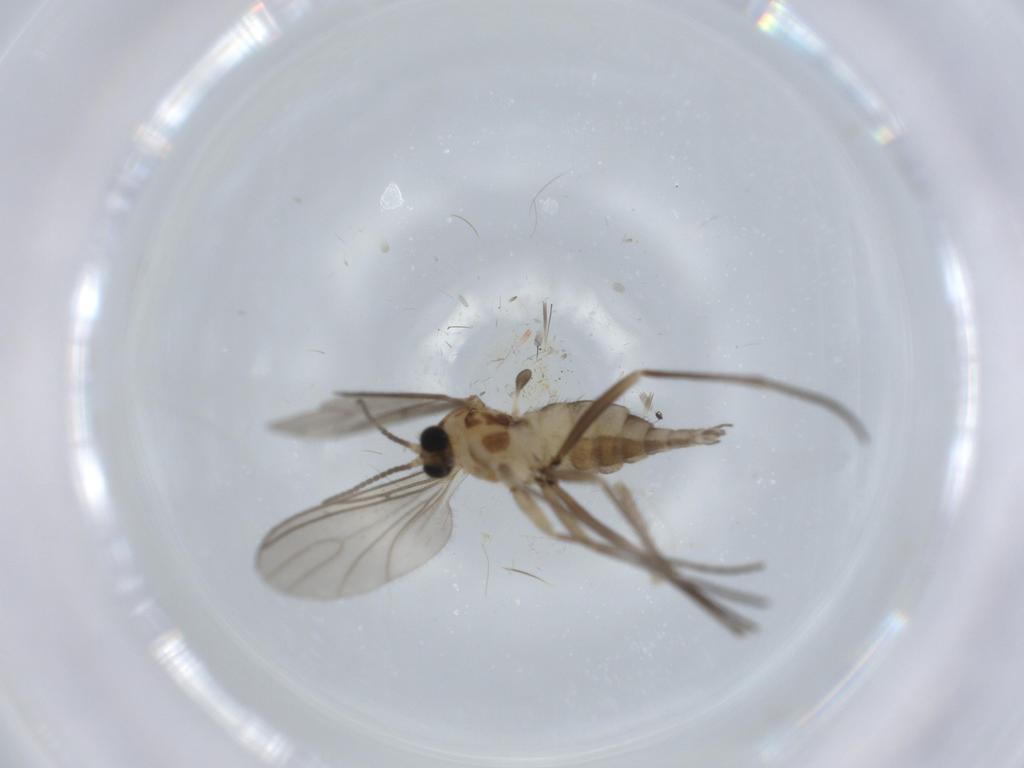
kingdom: Animalia
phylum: Arthropoda
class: Insecta
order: Diptera
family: Sciaridae
